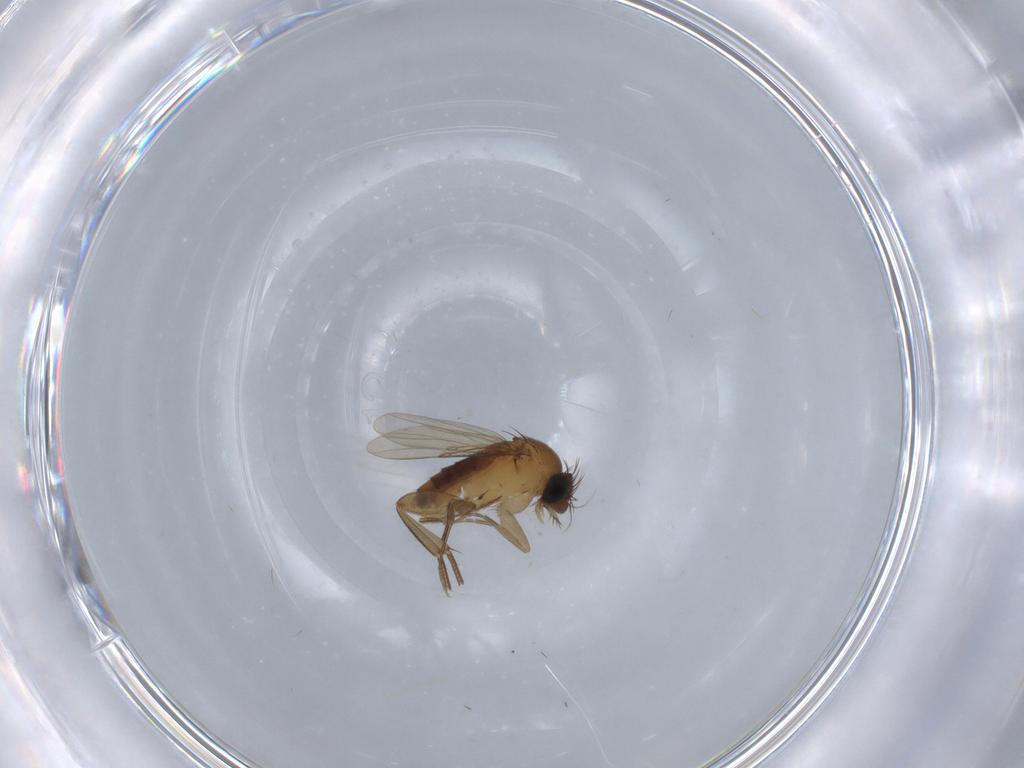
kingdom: Animalia
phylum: Arthropoda
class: Insecta
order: Diptera
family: Phoridae
